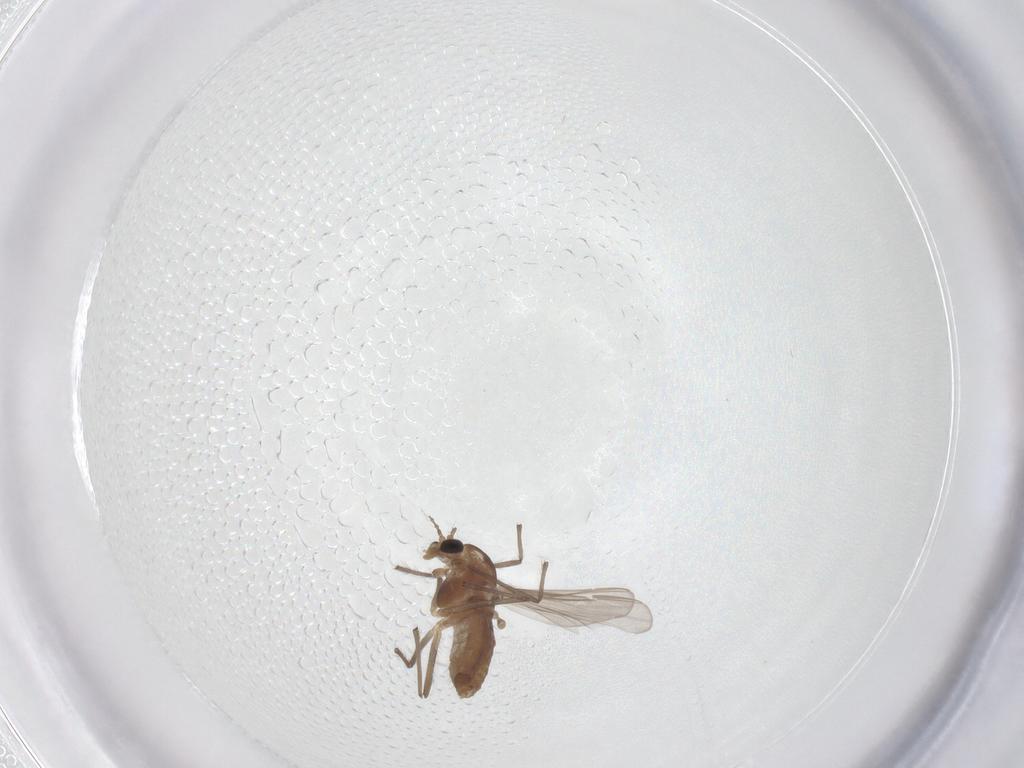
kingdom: Animalia
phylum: Arthropoda
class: Insecta
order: Diptera
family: Chironomidae
